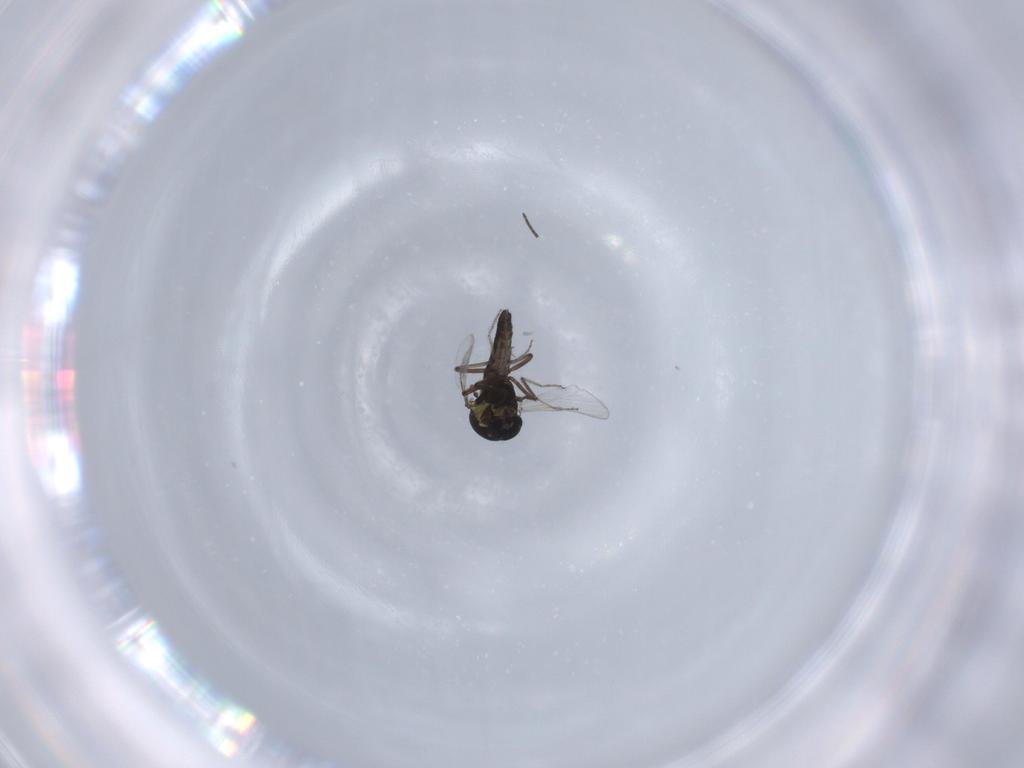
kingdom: Animalia
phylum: Arthropoda
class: Insecta
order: Diptera
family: Ceratopogonidae
